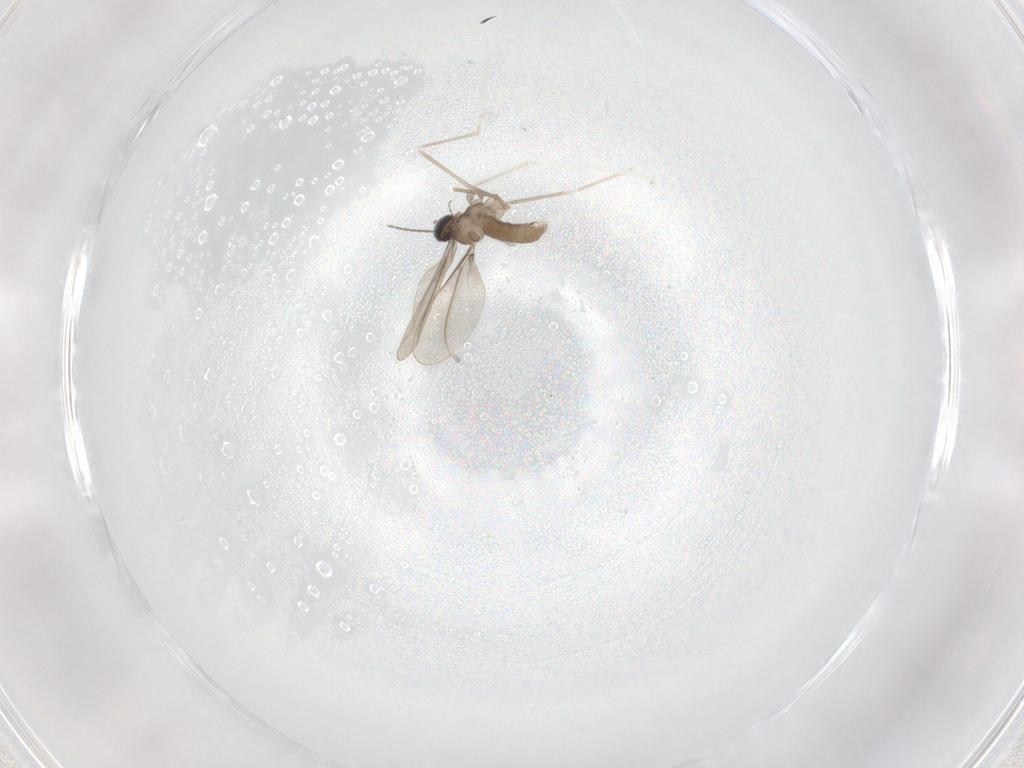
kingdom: Animalia
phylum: Arthropoda
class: Insecta
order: Diptera
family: Cecidomyiidae
